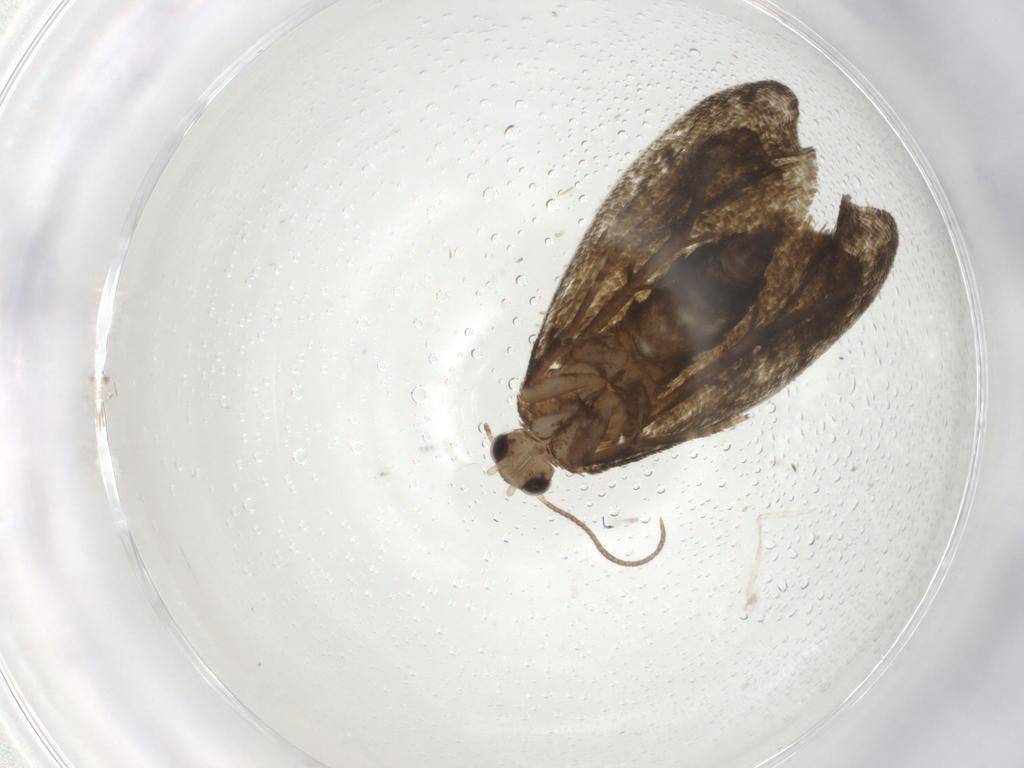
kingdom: Animalia
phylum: Arthropoda
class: Insecta
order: Lepidoptera
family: Tortricidae
